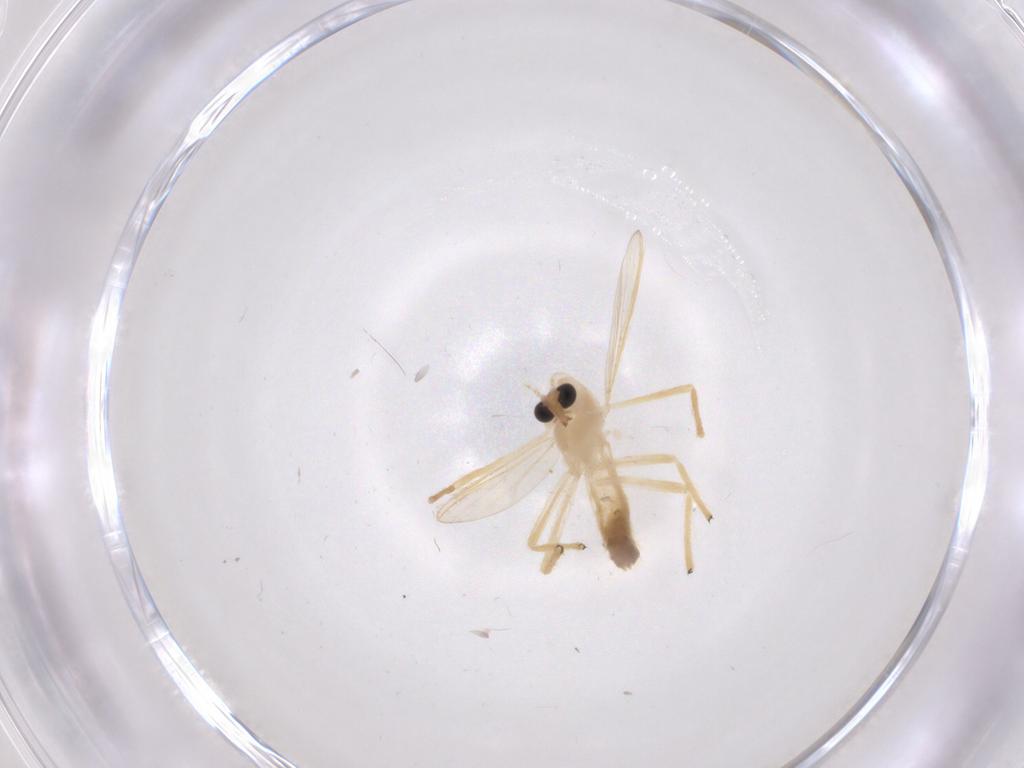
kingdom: Animalia
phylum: Arthropoda
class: Insecta
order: Diptera
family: Chironomidae
